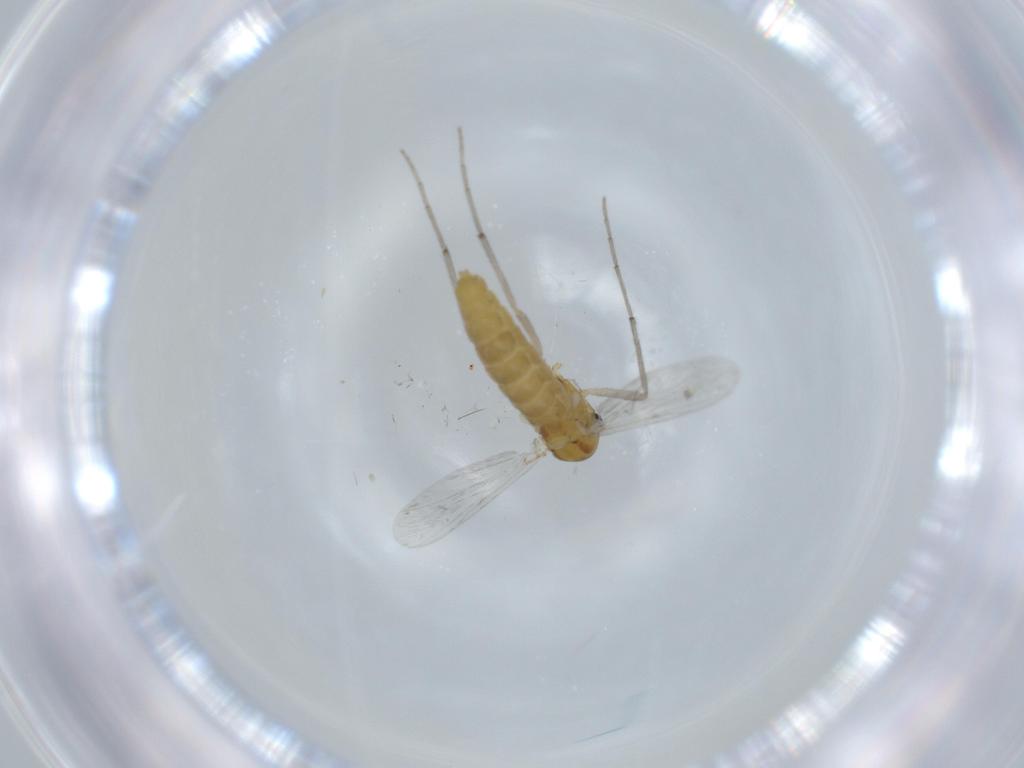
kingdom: Animalia
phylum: Arthropoda
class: Insecta
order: Diptera
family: Chironomidae
